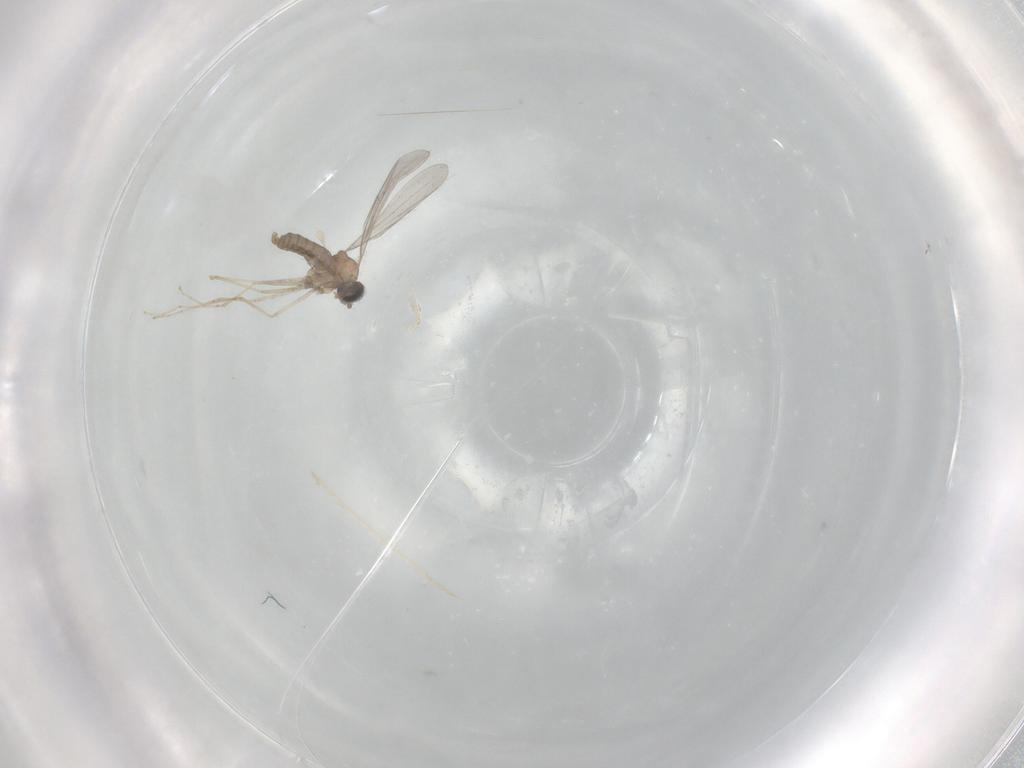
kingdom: Animalia
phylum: Arthropoda
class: Insecta
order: Diptera
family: Cecidomyiidae
